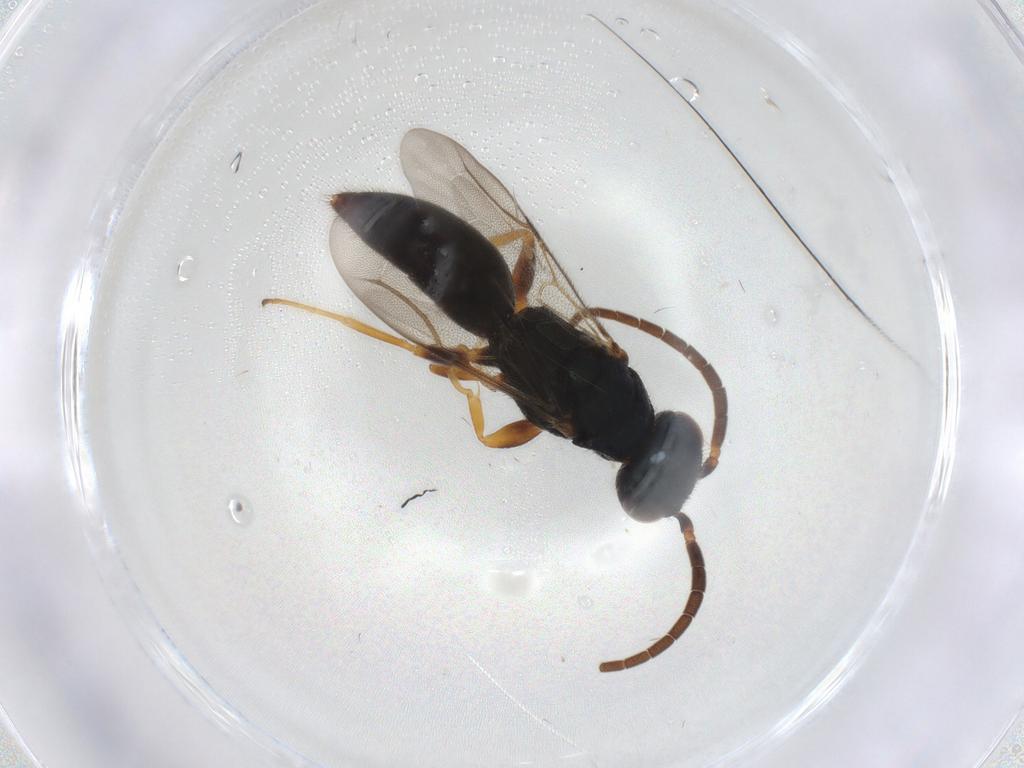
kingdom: Animalia
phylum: Arthropoda
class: Insecta
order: Hymenoptera
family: Bethylidae
